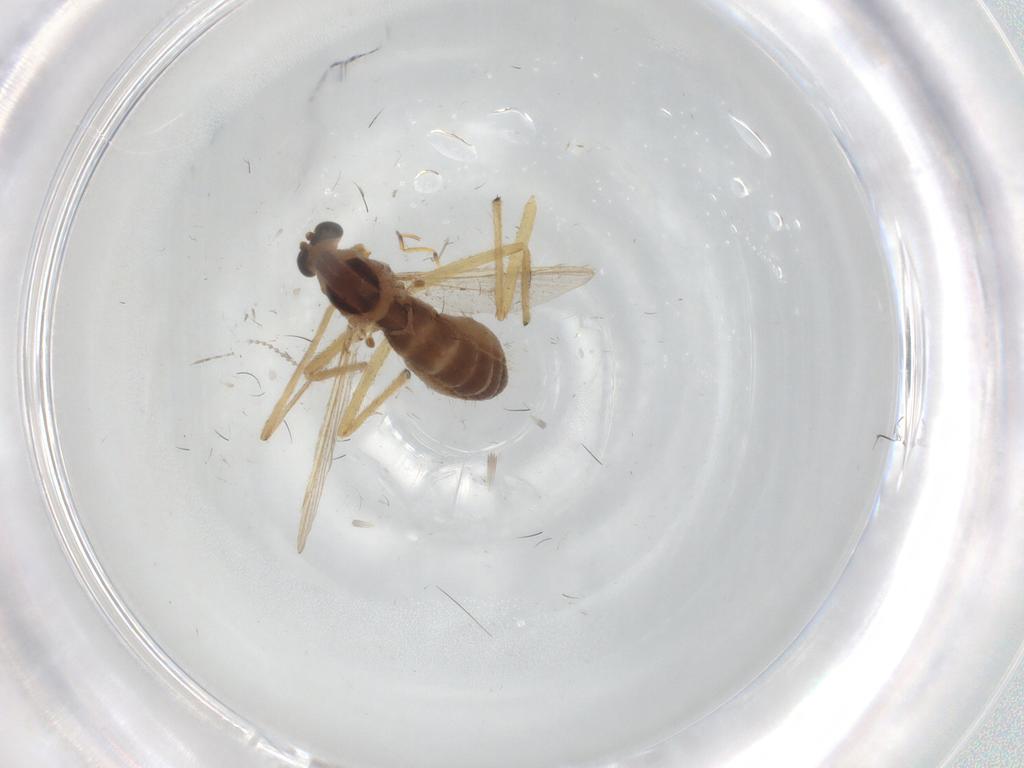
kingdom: Animalia
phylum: Arthropoda
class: Insecta
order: Diptera
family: Chironomidae
